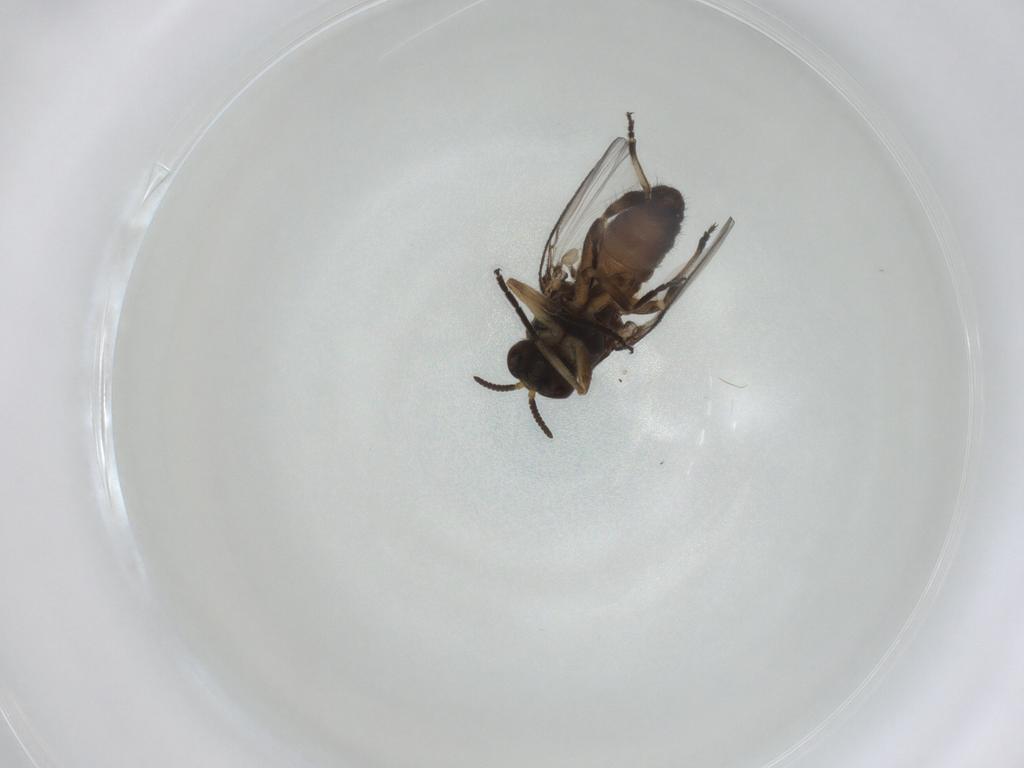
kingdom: Animalia
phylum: Arthropoda
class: Insecta
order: Diptera
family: Simuliidae
